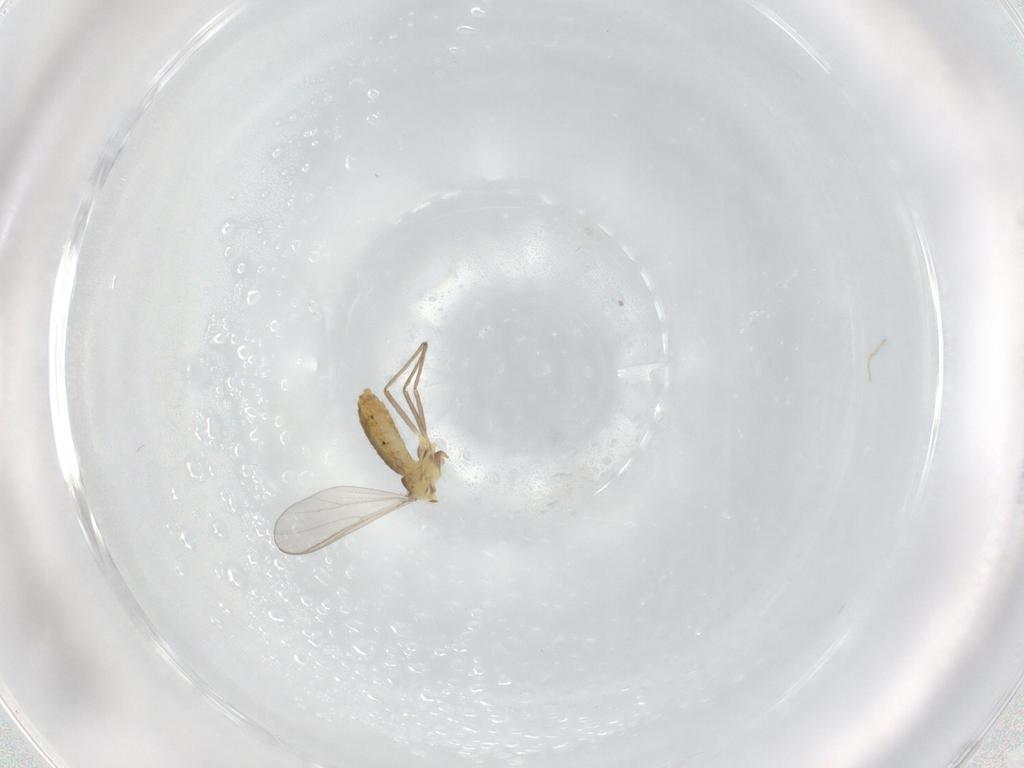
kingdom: Animalia
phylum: Arthropoda
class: Insecta
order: Diptera
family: Chironomidae
